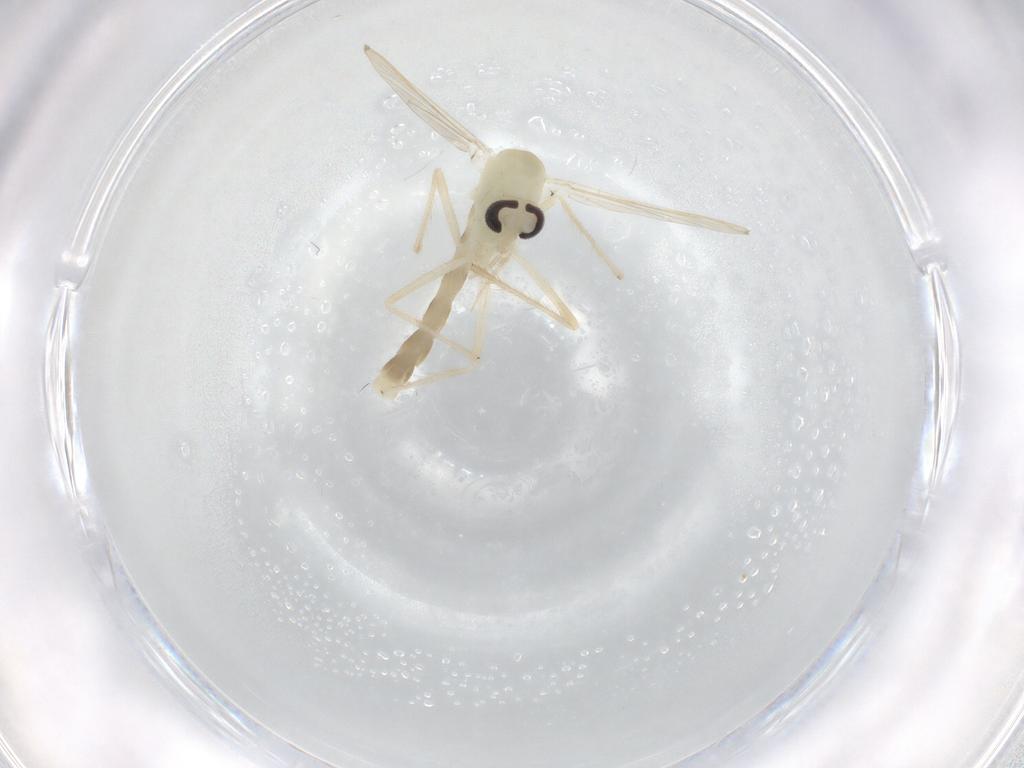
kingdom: Animalia
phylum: Arthropoda
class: Insecta
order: Diptera
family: Chironomidae
